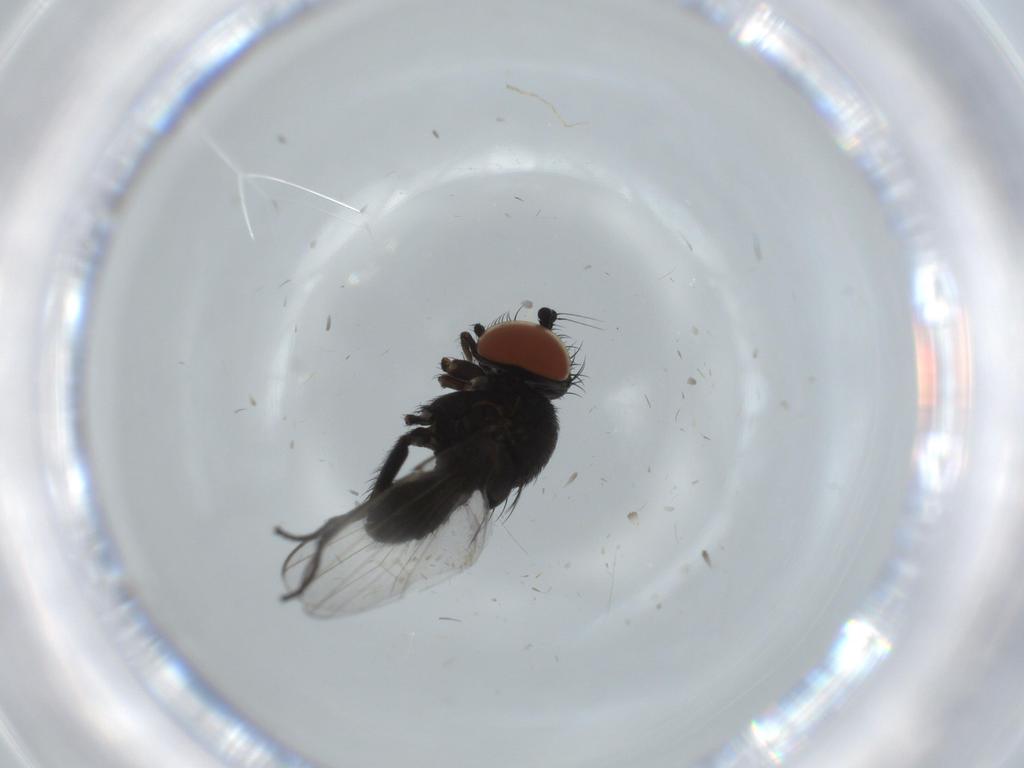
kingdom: Animalia
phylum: Arthropoda
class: Insecta
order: Diptera
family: Milichiidae
